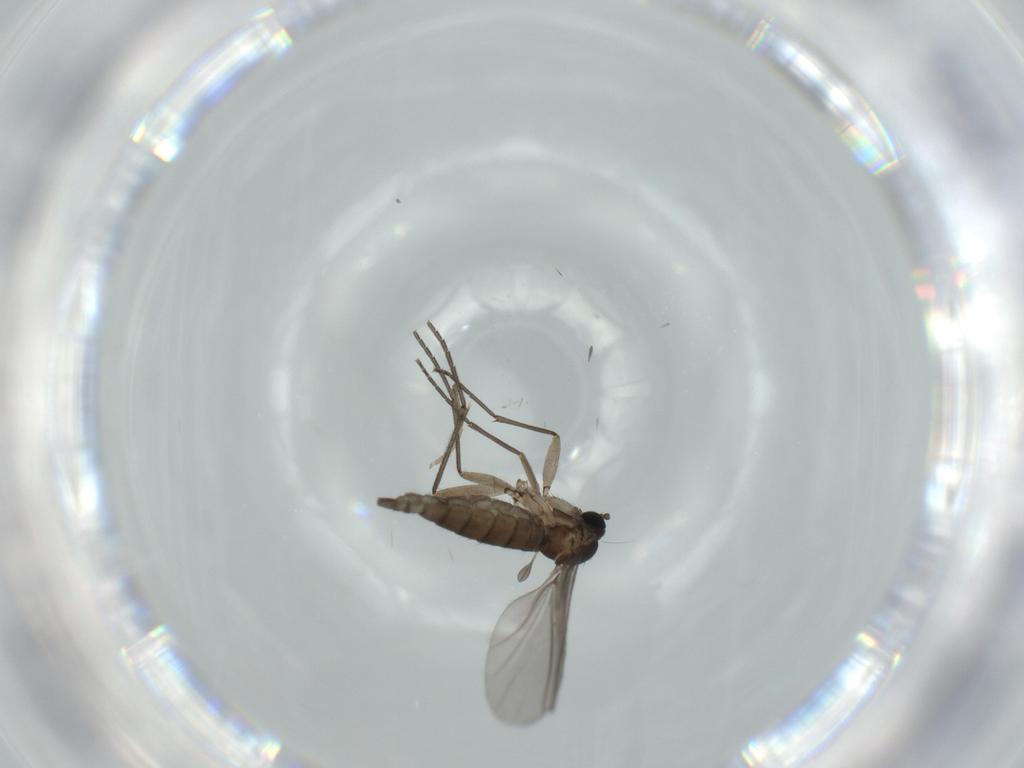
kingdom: Animalia
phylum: Arthropoda
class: Insecta
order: Diptera
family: Sciaridae
